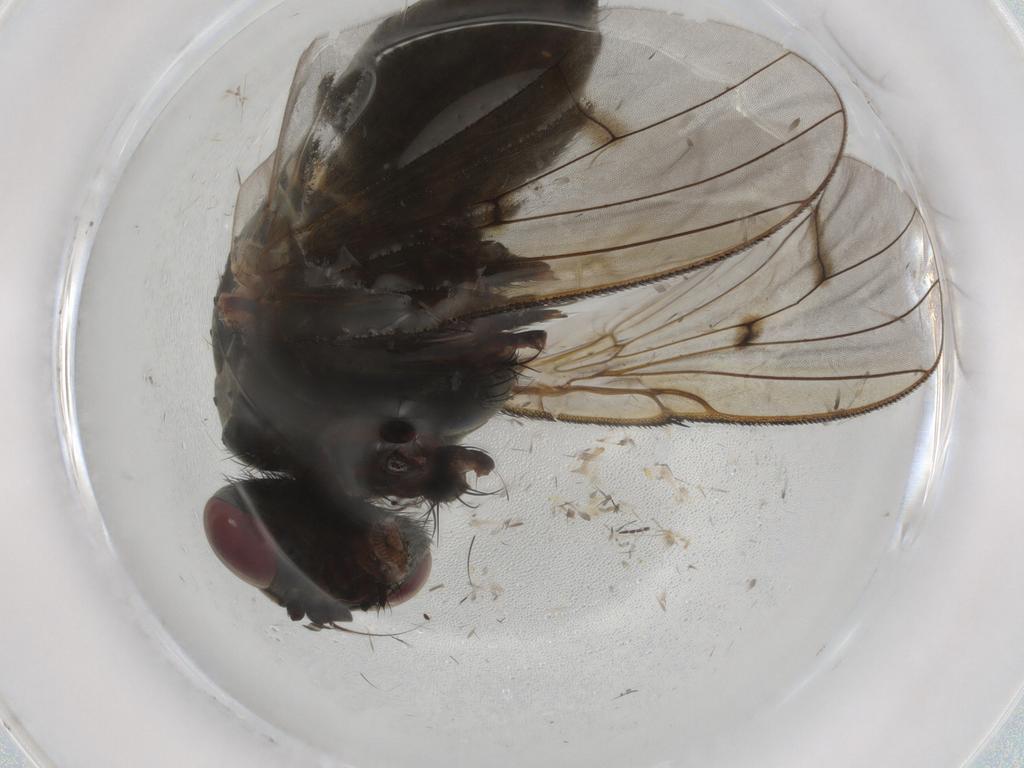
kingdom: Animalia
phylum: Arthropoda
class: Insecta
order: Diptera
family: Muscidae
